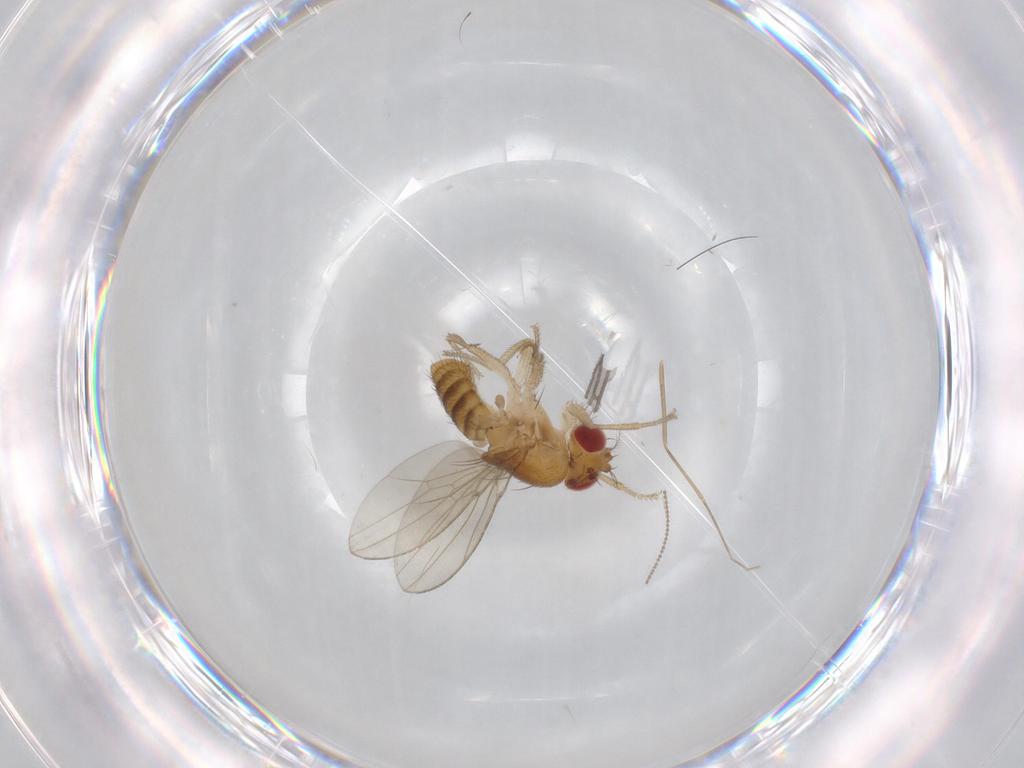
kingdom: Animalia
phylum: Arthropoda
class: Insecta
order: Diptera
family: Drosophilidae
